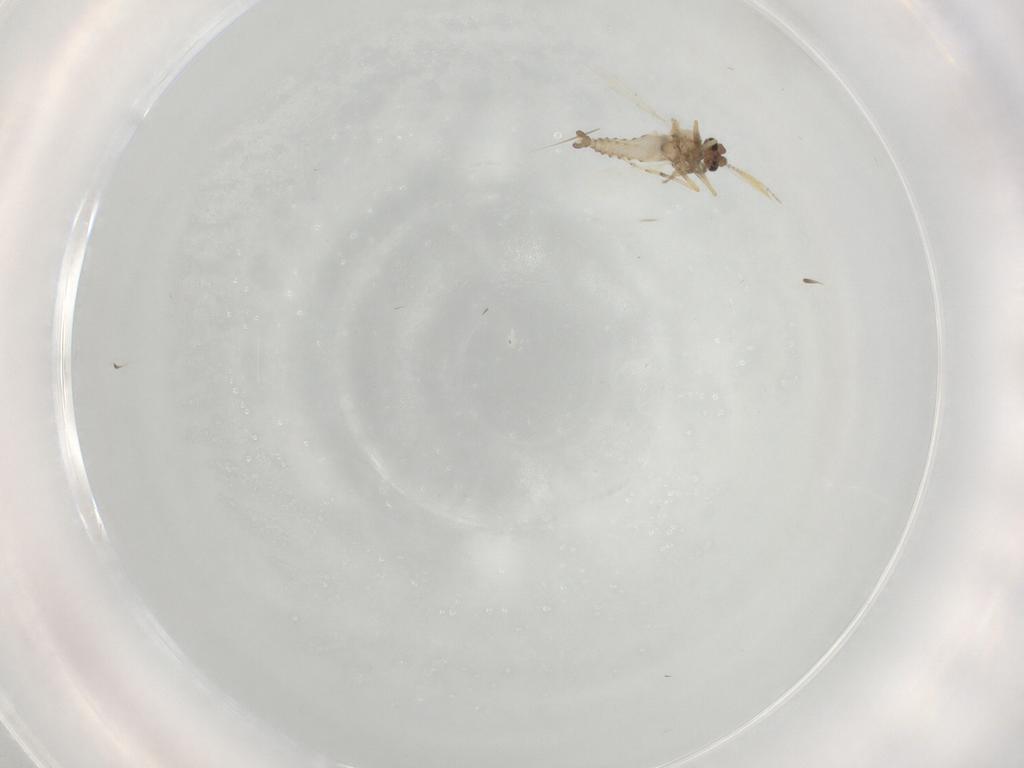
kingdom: Animalia
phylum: Arthropoda
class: Insecta
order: Diptera
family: Ceratopogonidae
